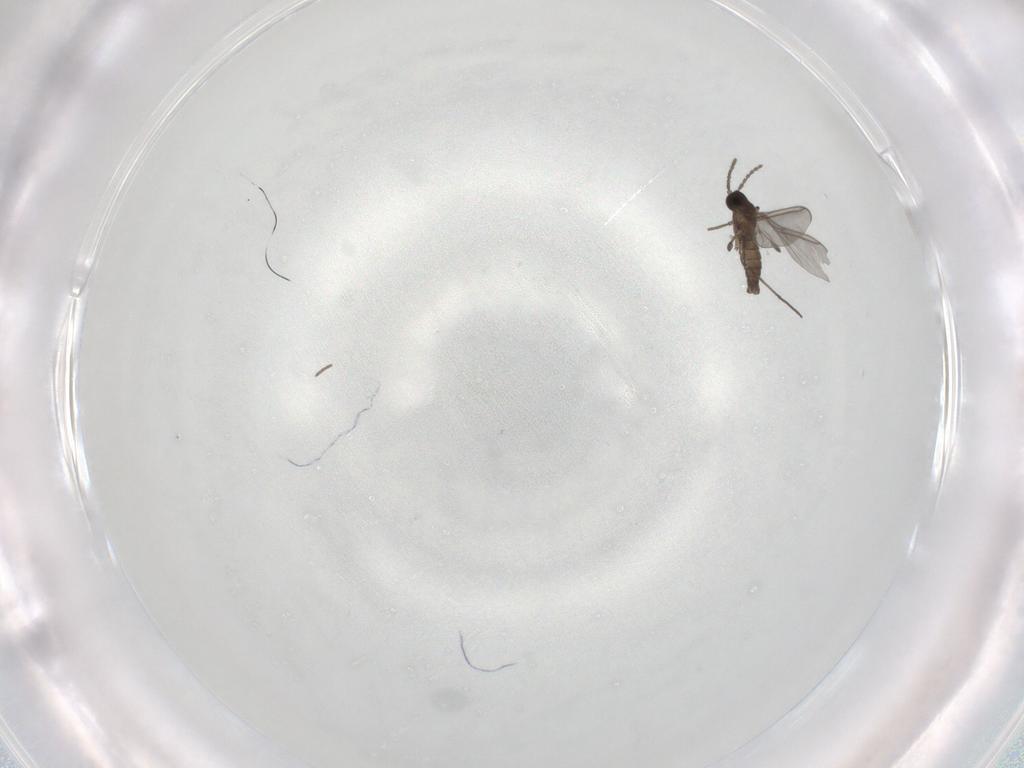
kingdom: Animalia
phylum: Arthropoda
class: Insecta
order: Diptera
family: Sciaridae
